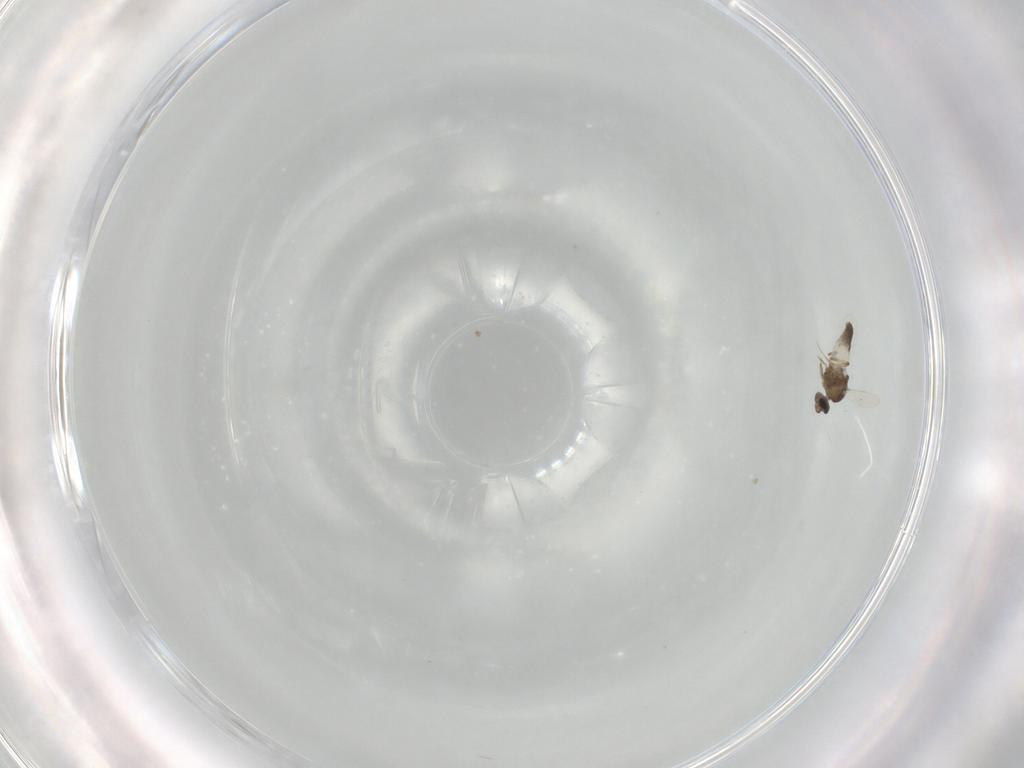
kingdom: Animalia
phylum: Arthropoda
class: Insecta
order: Diptera
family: Ceratopogonidae
